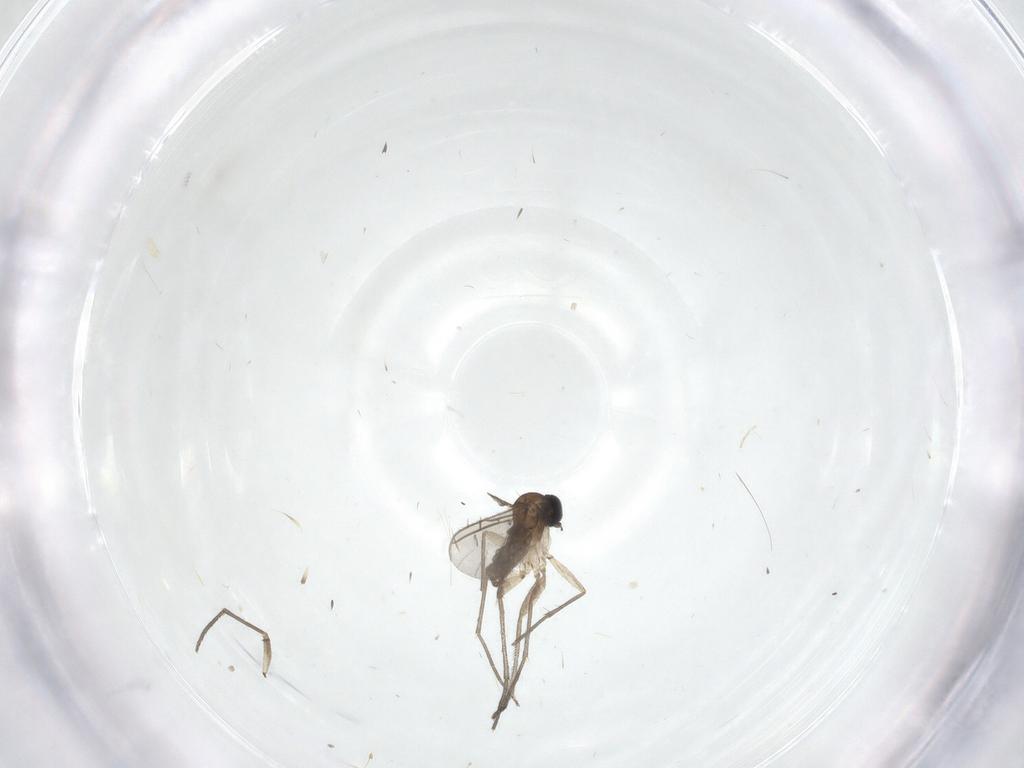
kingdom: Animalia
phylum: Arthropoda
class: Insecta
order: Diptera
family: Sciaridae
